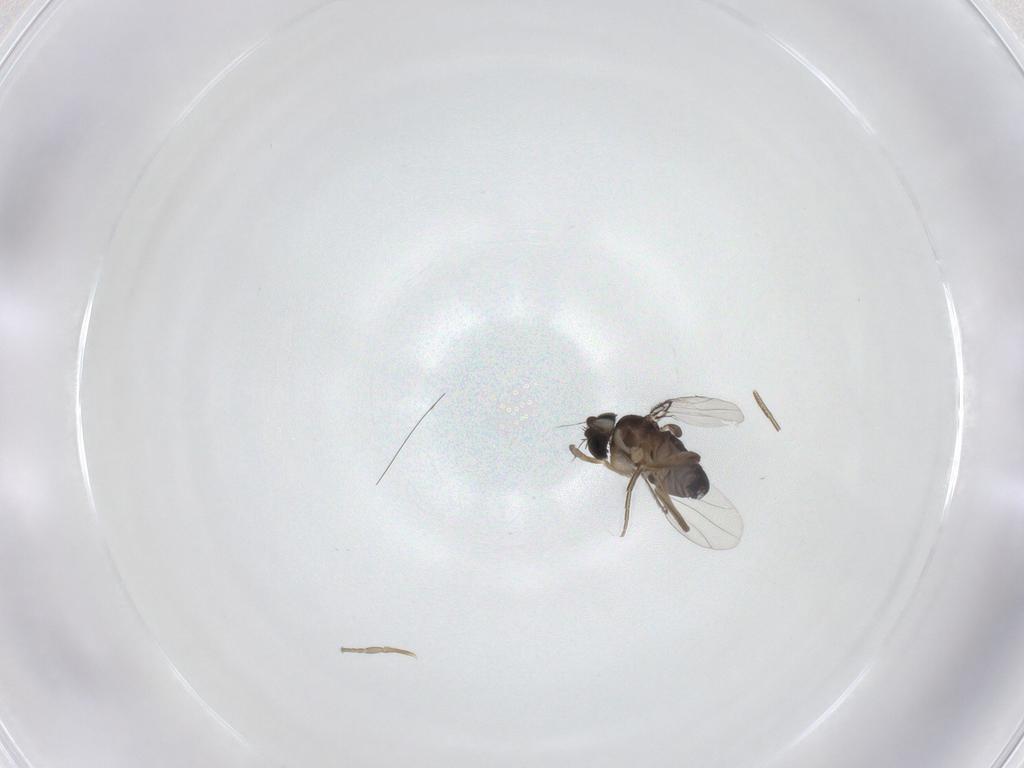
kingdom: Animalia
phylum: Arthropoda
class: Insecta
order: Diptera
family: Phoridae
